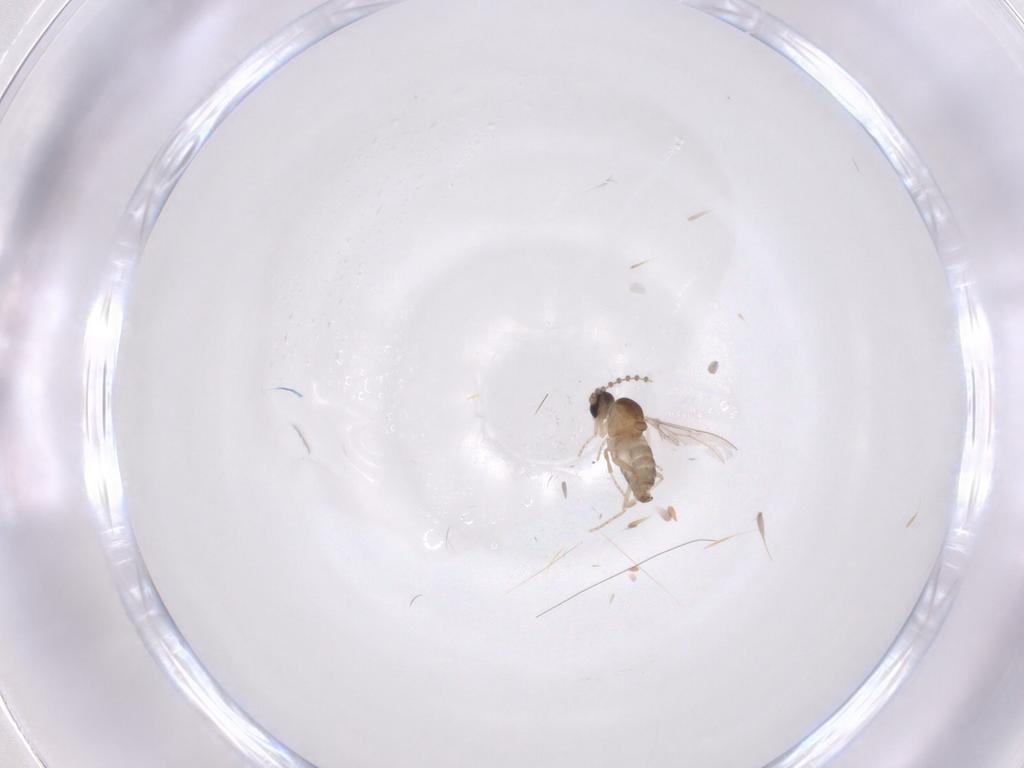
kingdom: Animalia
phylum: Arthropoda
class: Insecta
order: Diptera
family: Cecidomyiidae
